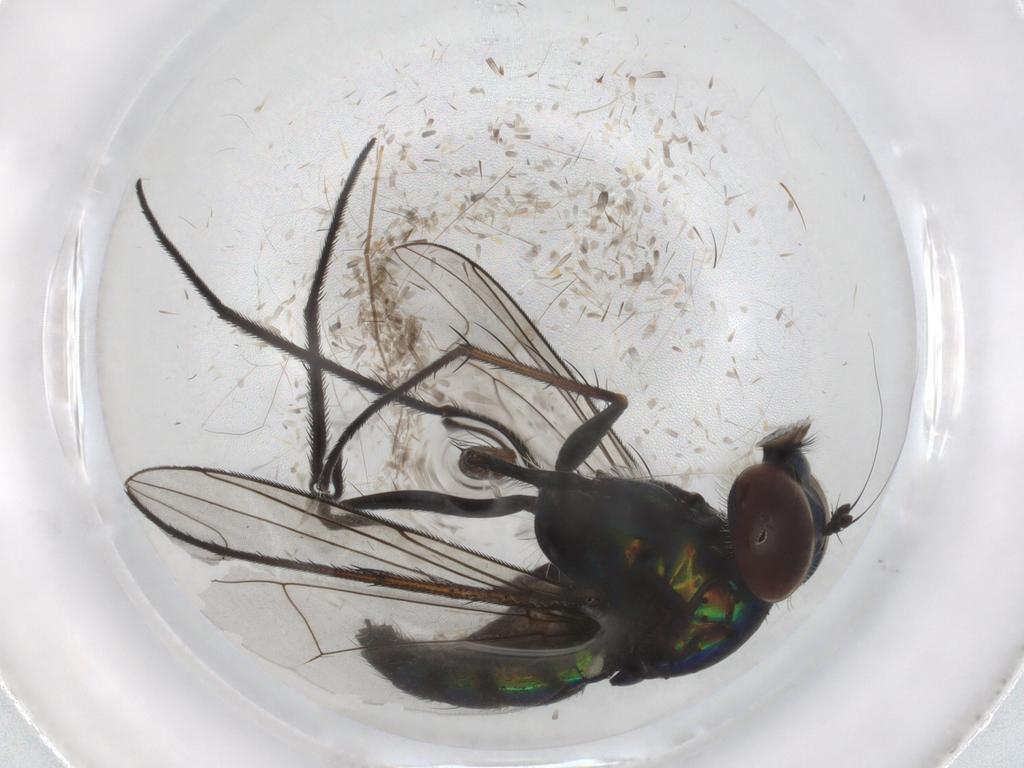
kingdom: Animalia
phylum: Arthropoda
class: Insecta
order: Diptera
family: Dolichopodidae
